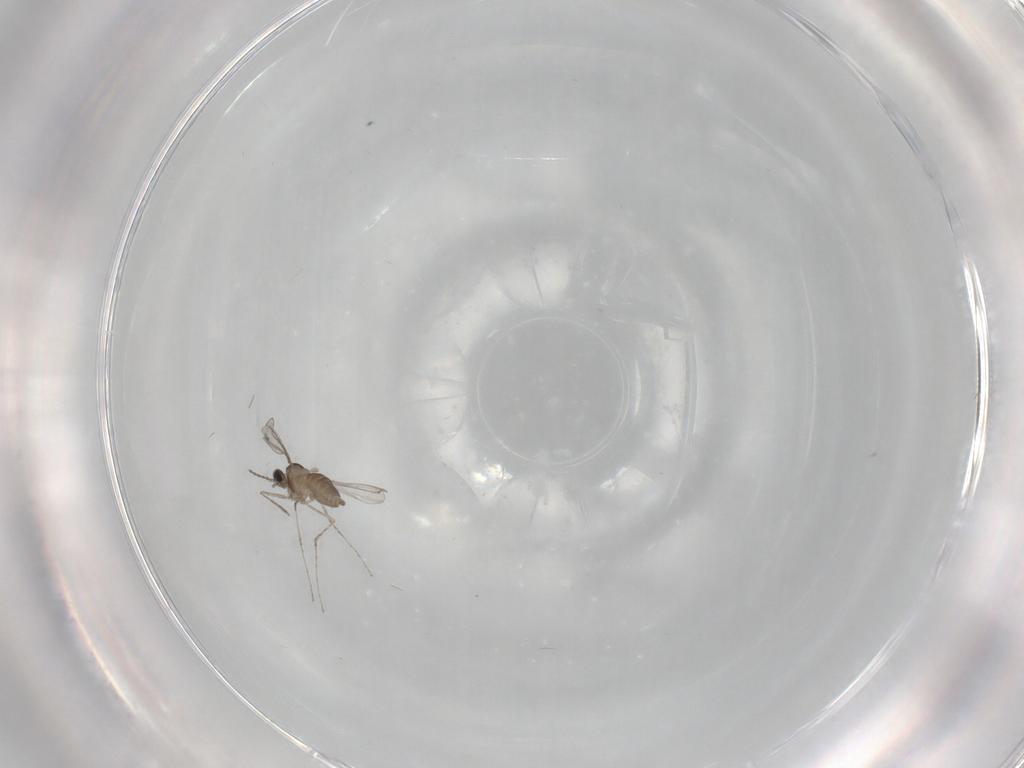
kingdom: Animalia
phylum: Arthropoda
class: Insecta
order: Diptera
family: Cecidomyiidae
